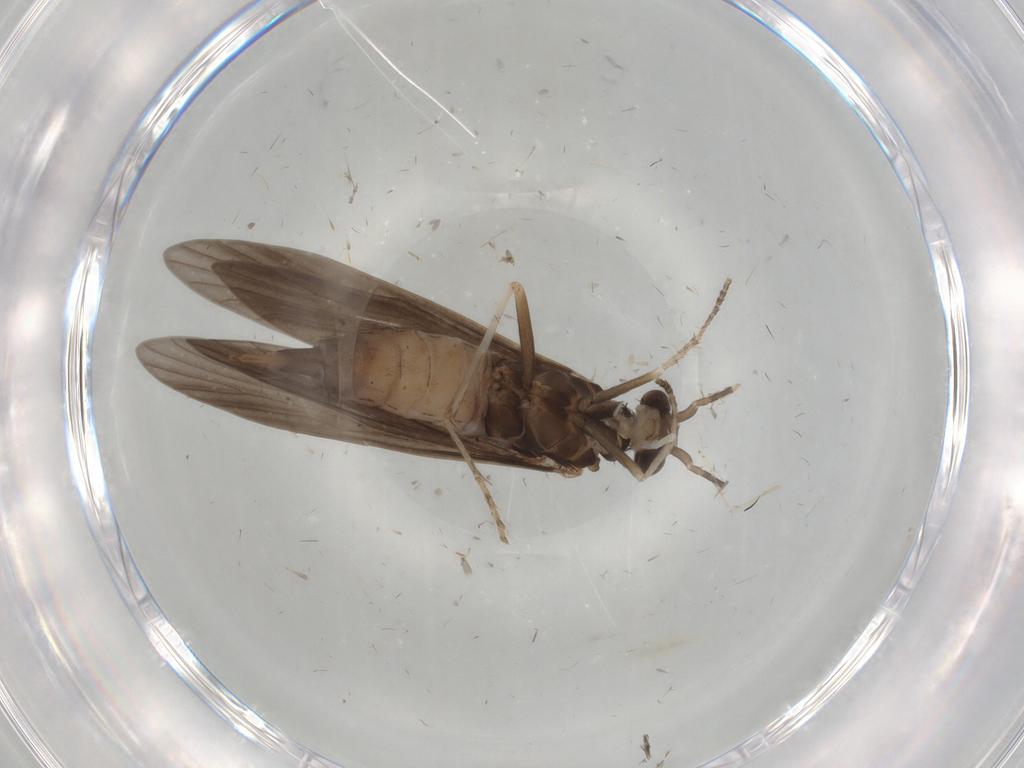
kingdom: Animalia
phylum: Arthropoda
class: Insecta
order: Trichoptera
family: Xiphocentronidae
